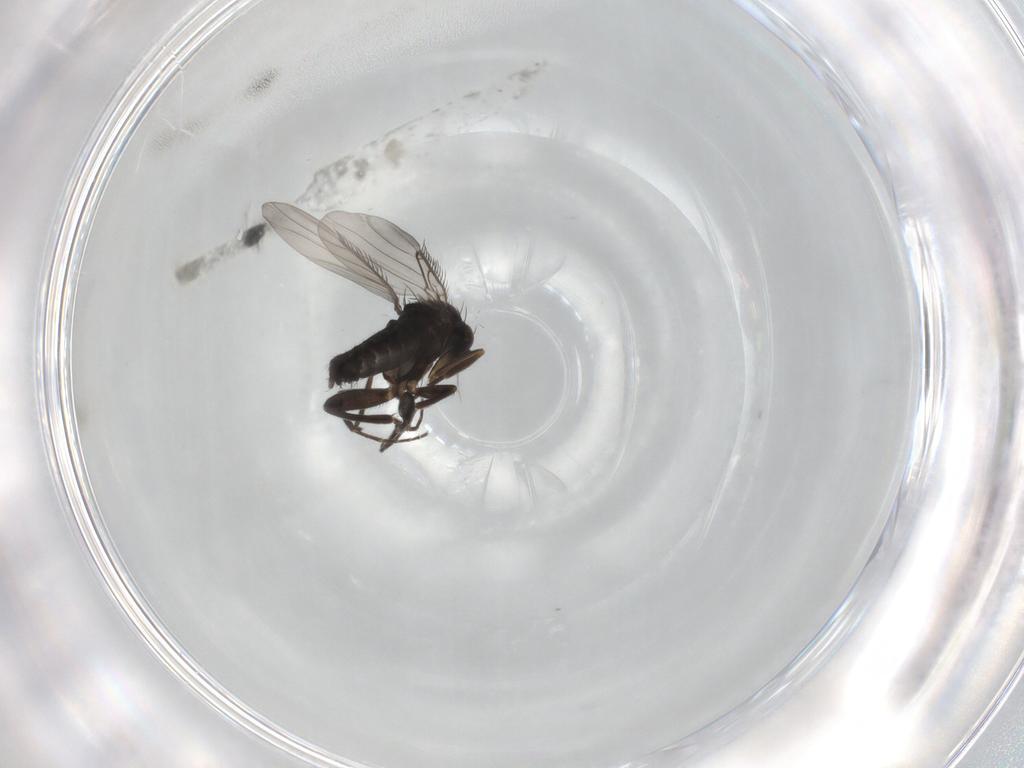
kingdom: Animalia
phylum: Arthropoda
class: Insecta
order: Diptera
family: Phoridae
